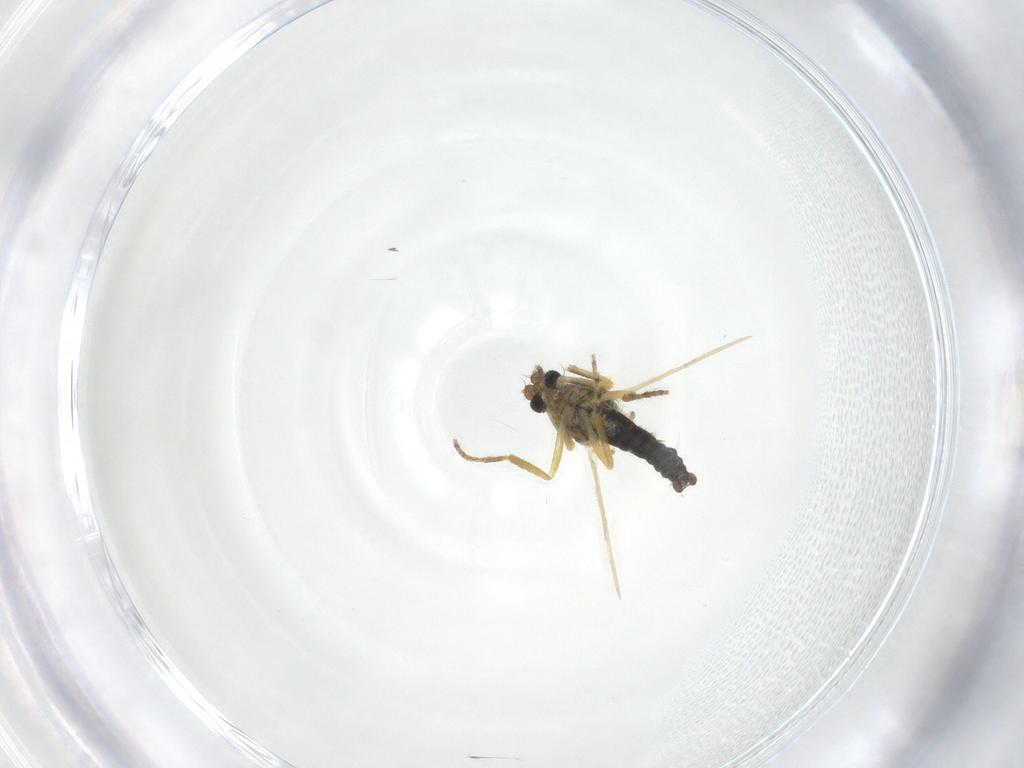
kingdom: Animalia
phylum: Arthropoda
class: Insecta
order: Diptera
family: Ceratopogonidae
